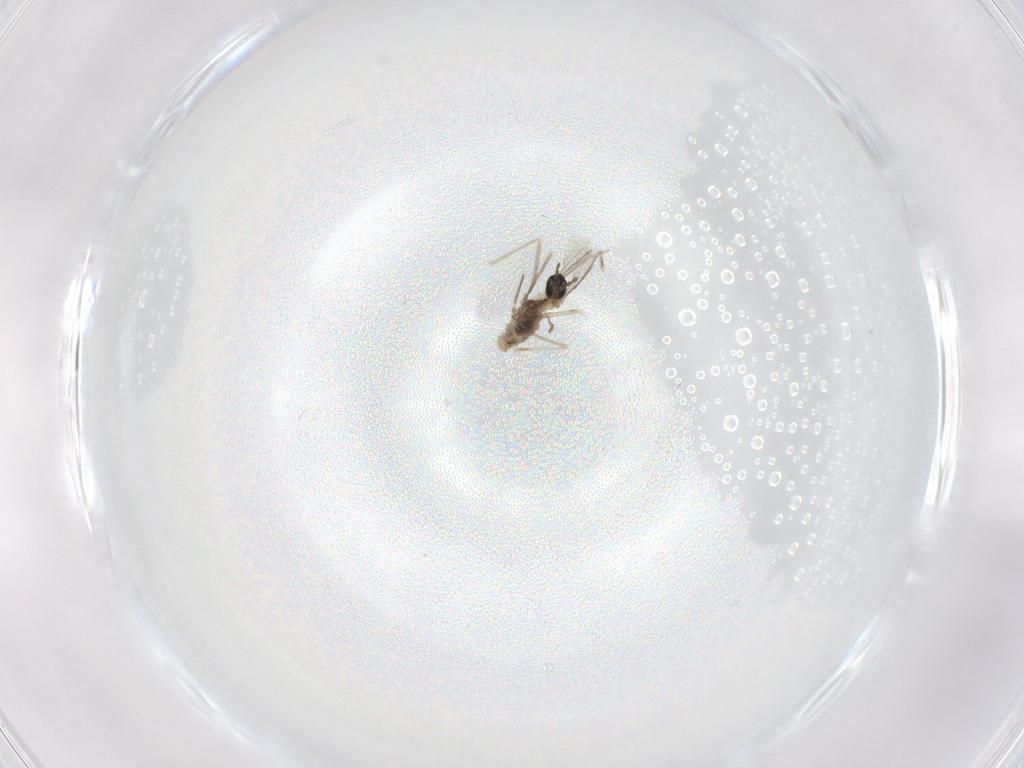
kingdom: Animalia
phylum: Arthropoda
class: Insecta
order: Diptera
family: Cecidomyiidae
